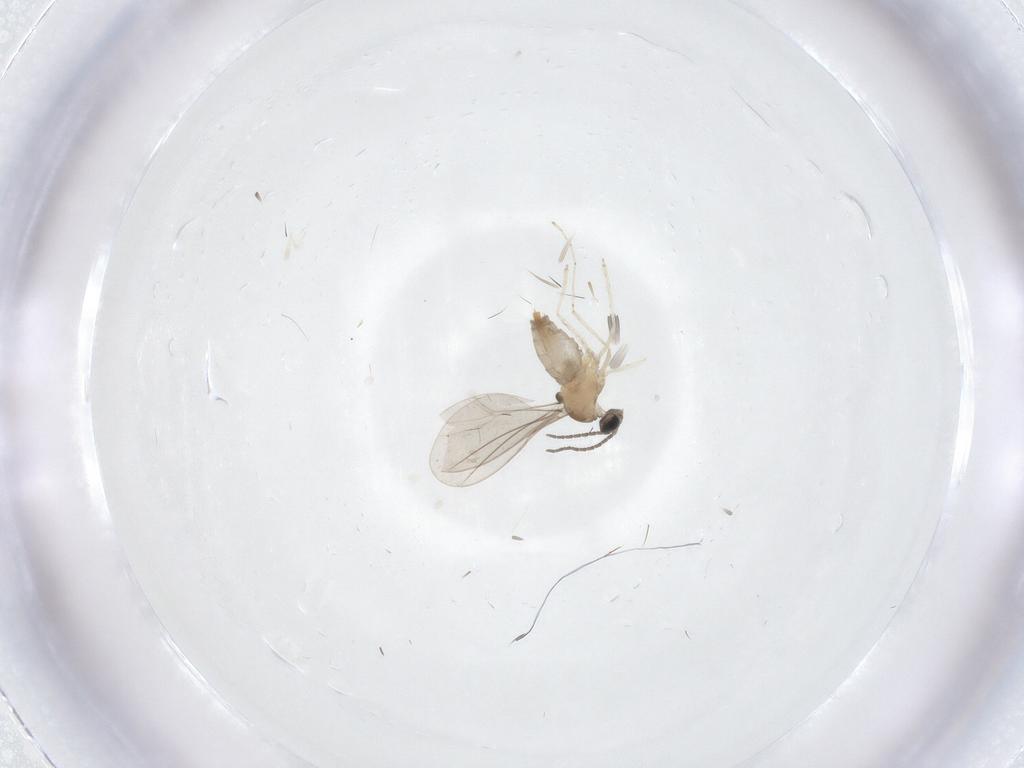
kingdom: Animalia
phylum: Arthropoda
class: Insecta
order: Diptera
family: Cecidomyiidae
